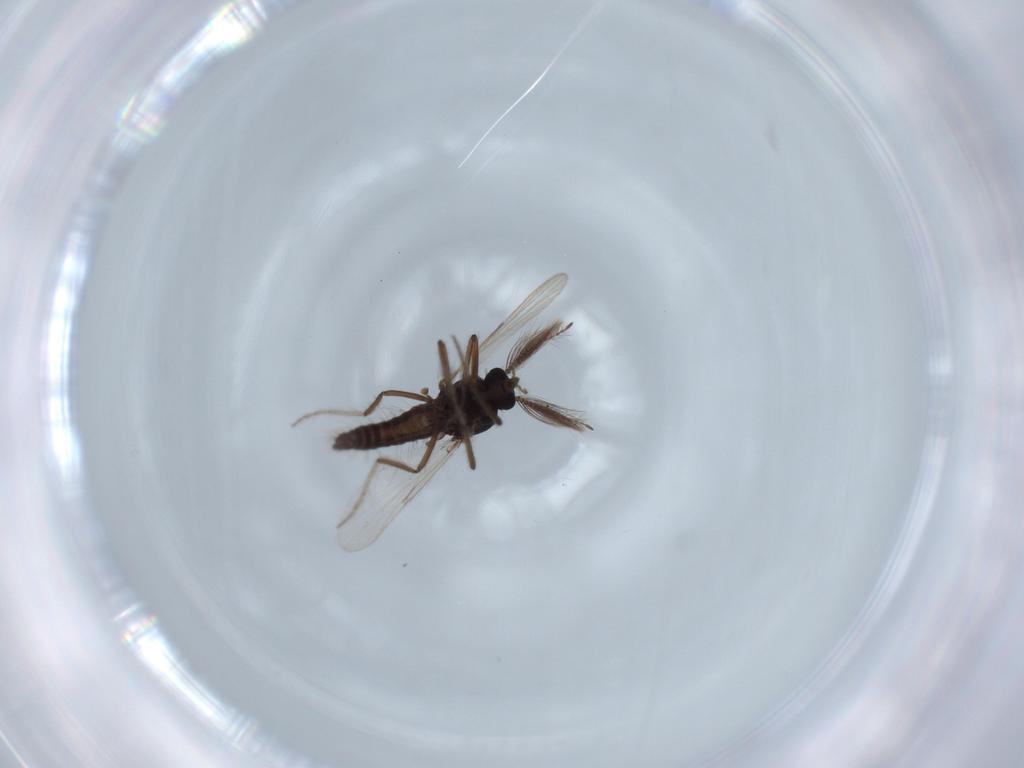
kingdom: Animalia
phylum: Arthropoda
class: Insecta
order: Diptera
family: Ceratopogonidae
